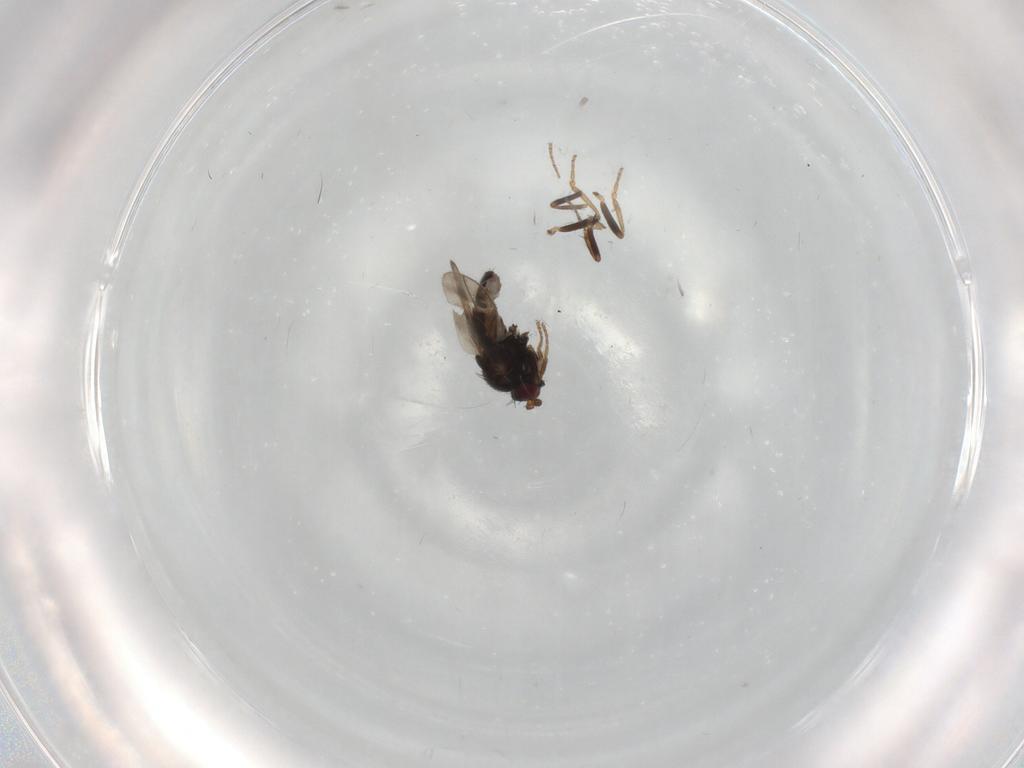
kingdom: Animalia
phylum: Arthropoda
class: Insecta
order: Diptera
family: Sphaeroceridae
